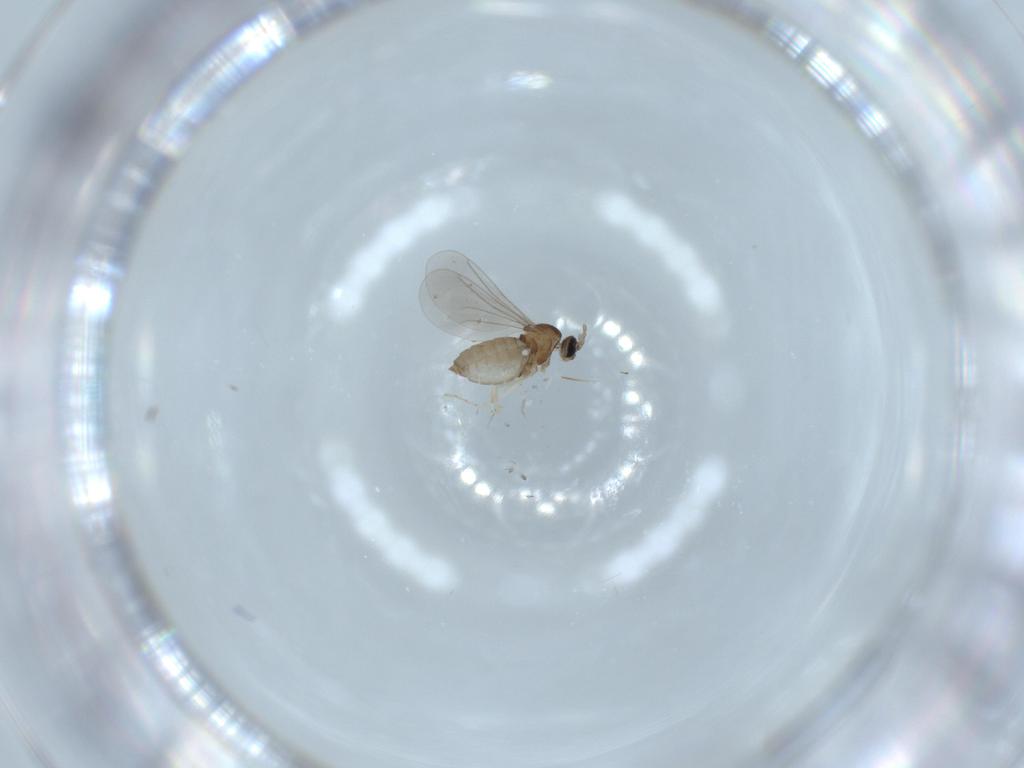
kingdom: Animalia
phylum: Arthropoda
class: Insecta
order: Diptera
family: Cecidomyiidae
